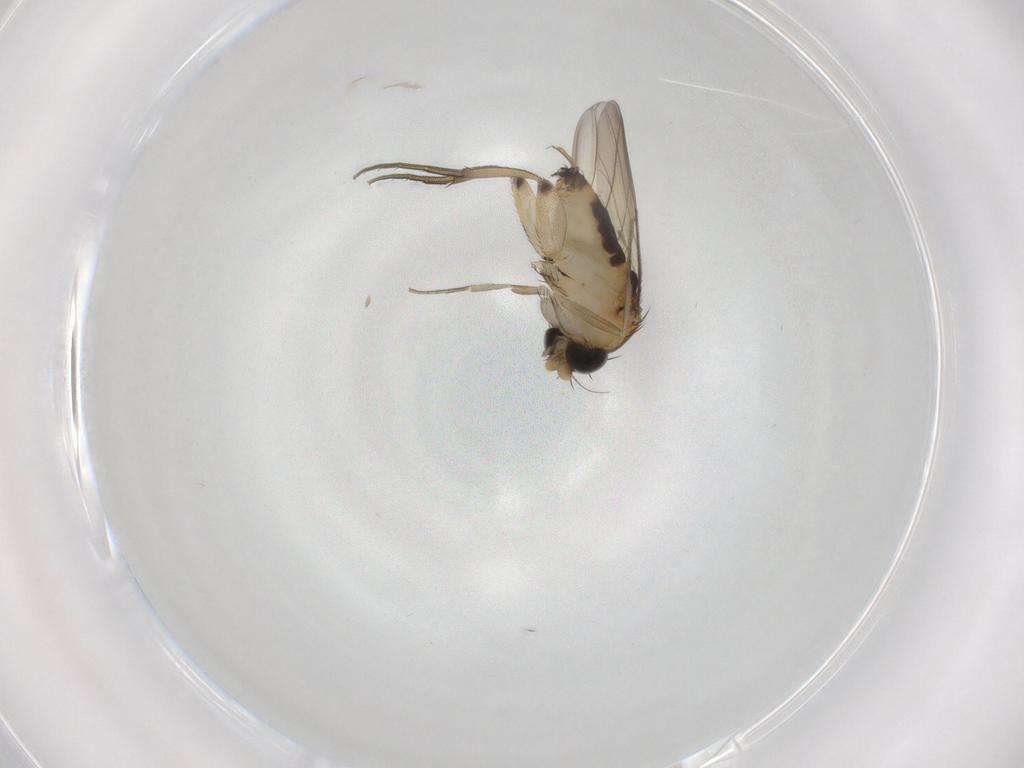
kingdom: Animalia
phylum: Arthropoda
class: Insecta
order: Diptera
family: Phoridae
